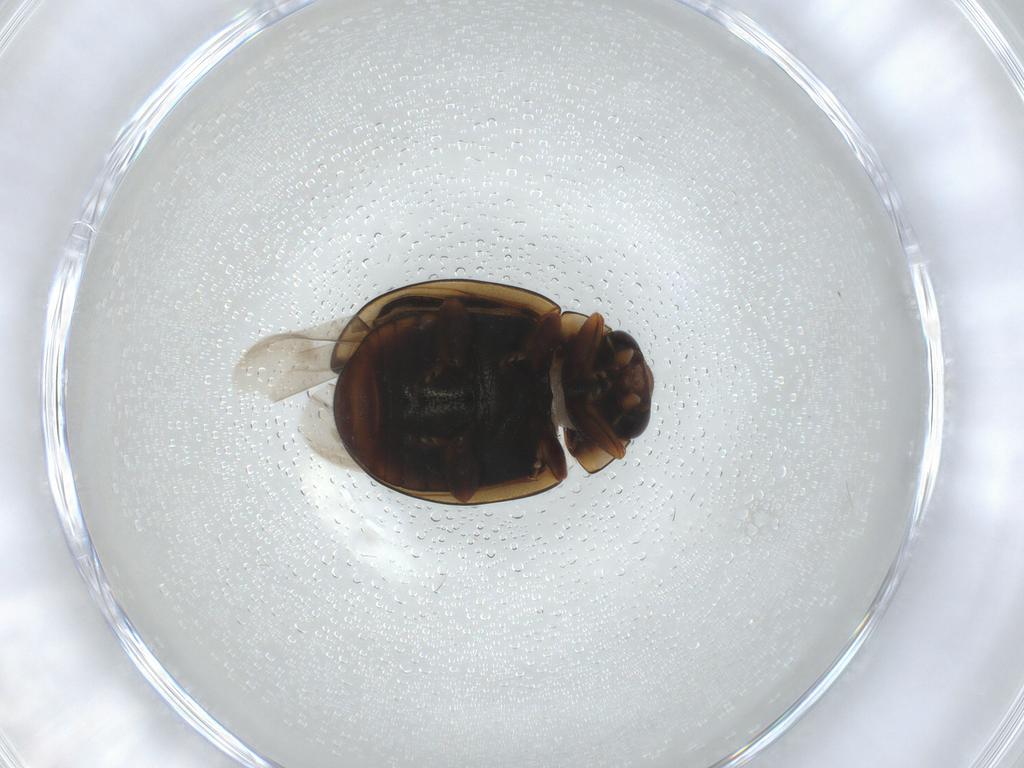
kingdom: Animalia
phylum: Arthropoda
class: Insecta
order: Coleoptera
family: Coccinellidae
